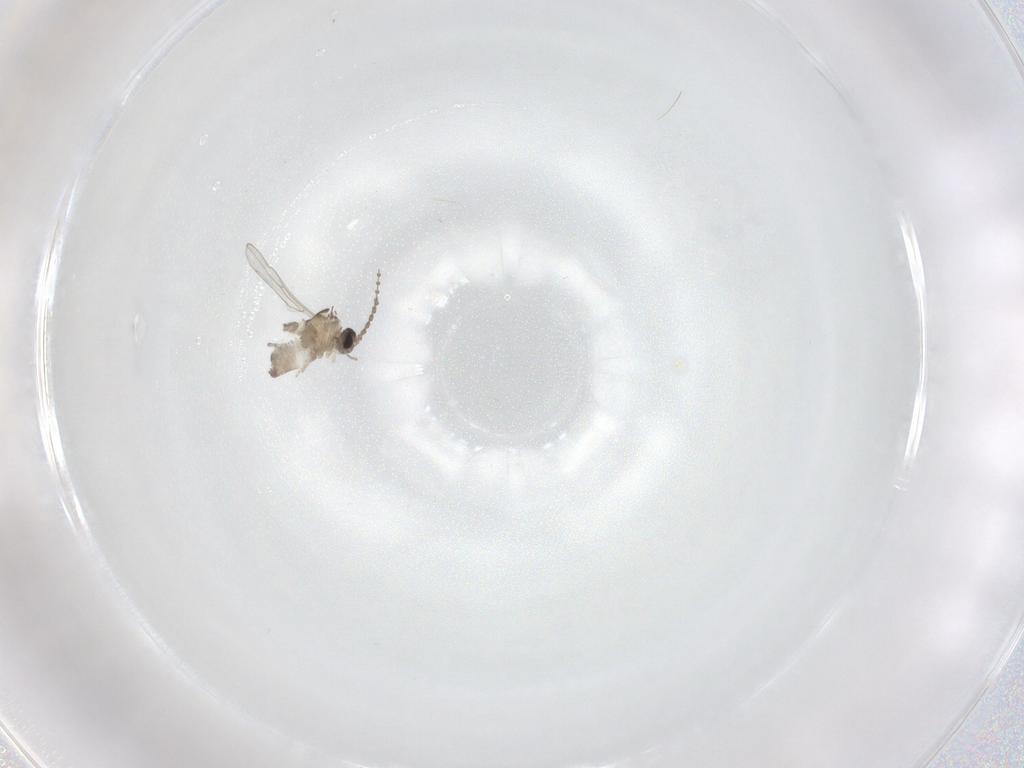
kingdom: Animalia
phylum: Arthropoda
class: Insecta
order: Diptera
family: Cecidomyiidae
